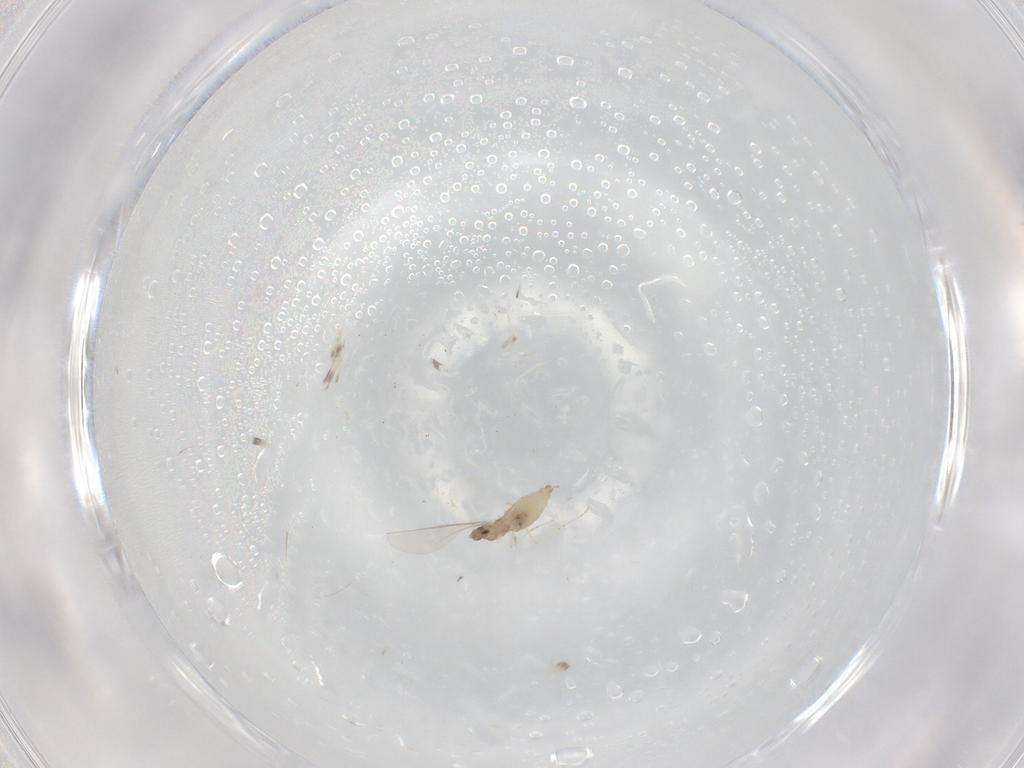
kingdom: Animalia
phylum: Arthropoda
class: Insecta
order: Diptera
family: Cecidomyiidae
